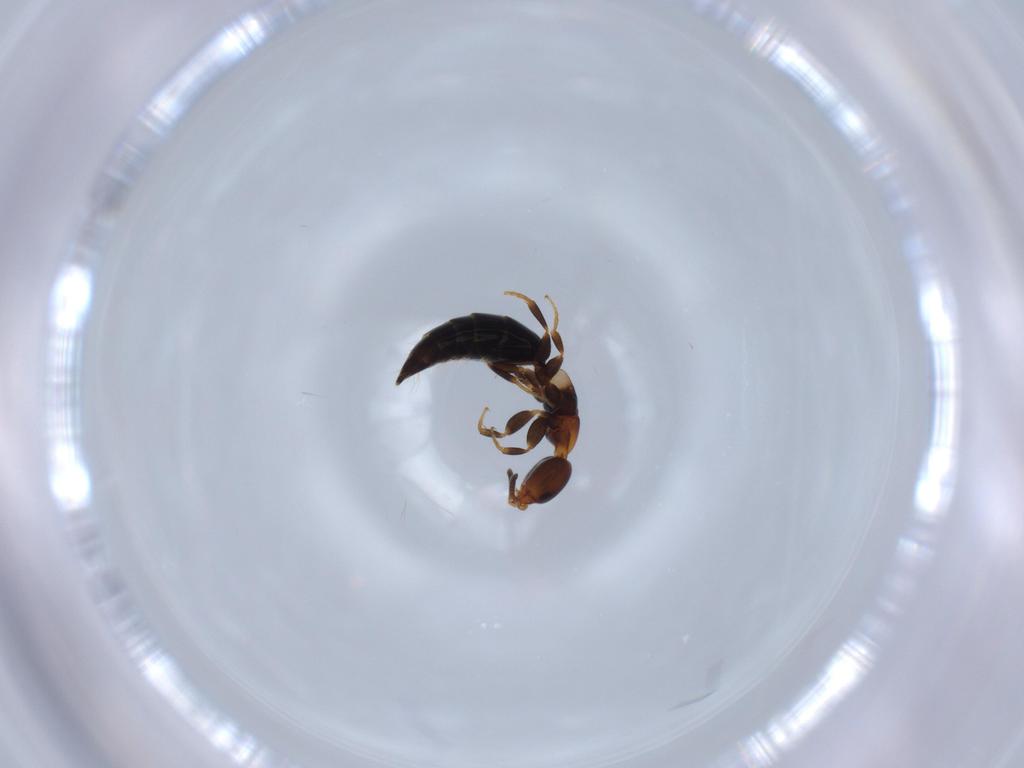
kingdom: Animalia
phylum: Arthropoda
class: Insecta
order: Hymenoptera
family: Bethylidae
